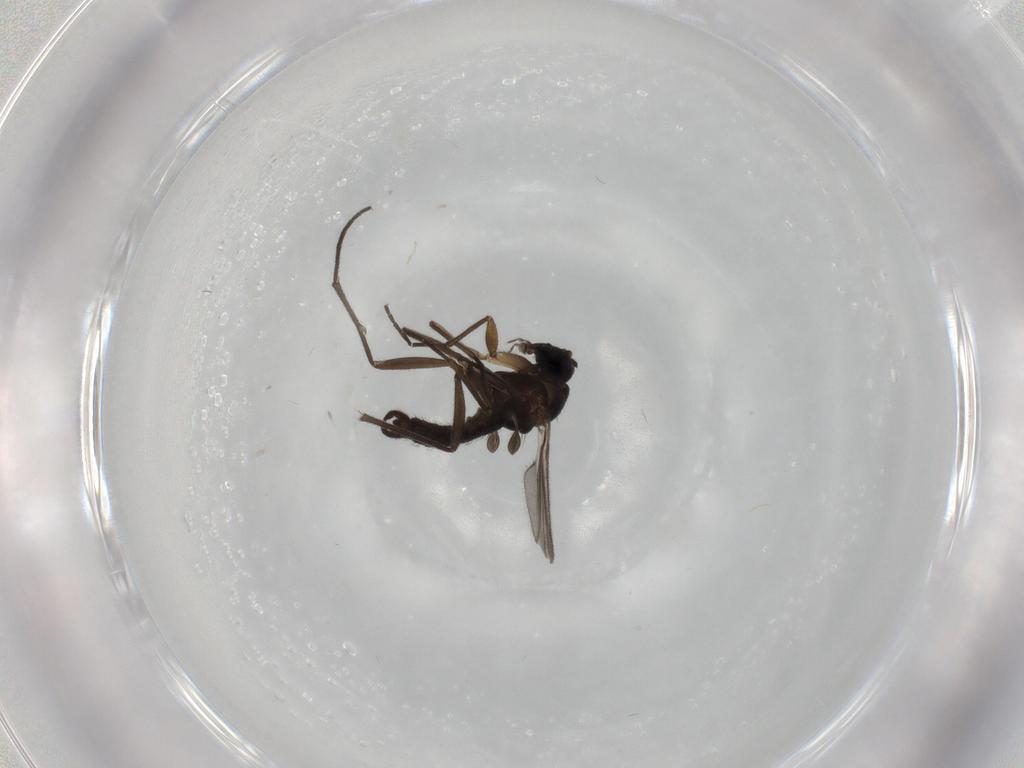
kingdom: Animalia
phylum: Arthropoda
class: Insecta
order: Diptera
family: Sciaridae
